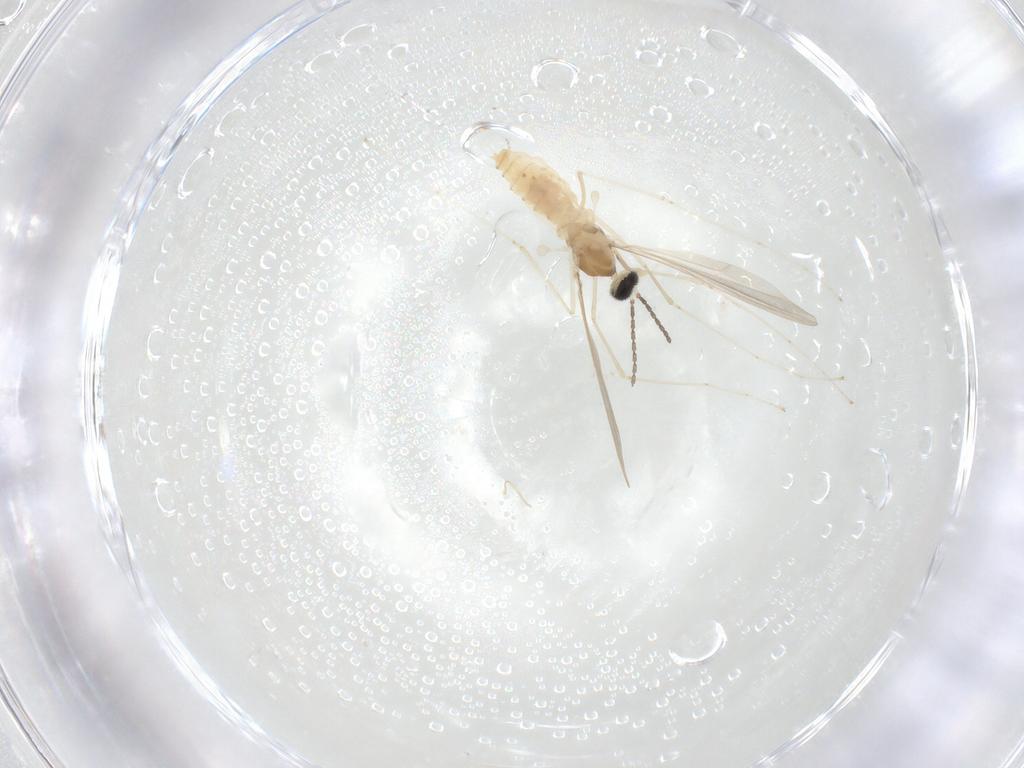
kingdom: Animalia
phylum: Arthropoda
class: Insecta
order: Diptera
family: Cecidomyiidae
